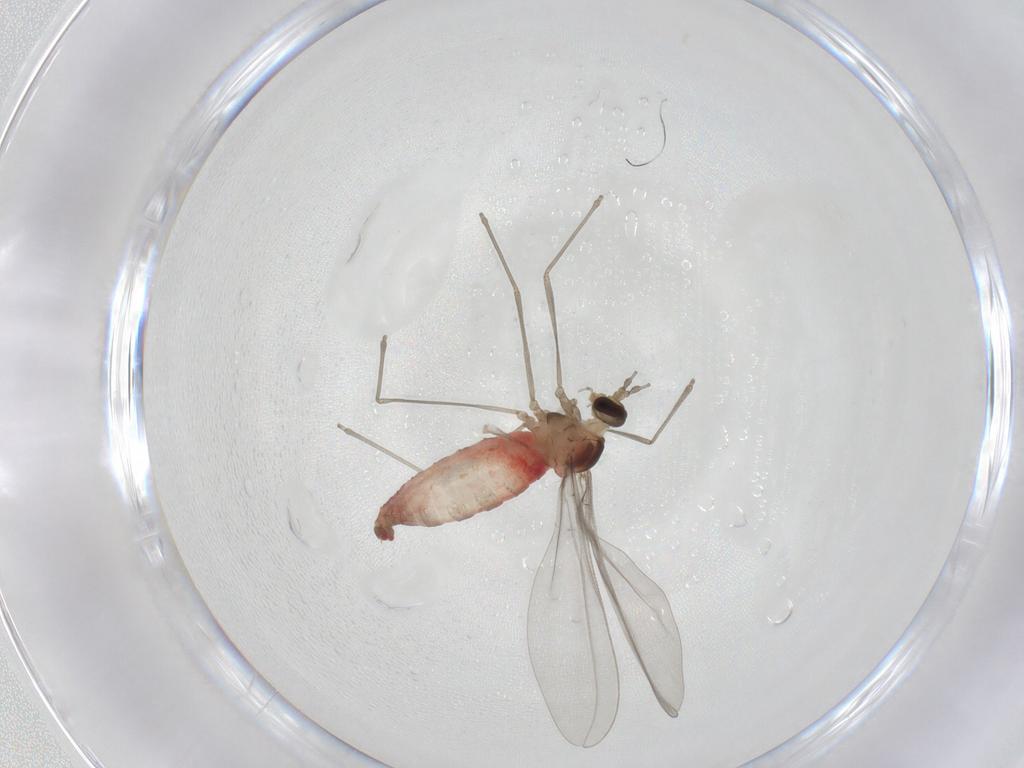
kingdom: Animalia
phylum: Arthropoda
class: Insecta
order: Diptera
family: Cecidomyiidae
